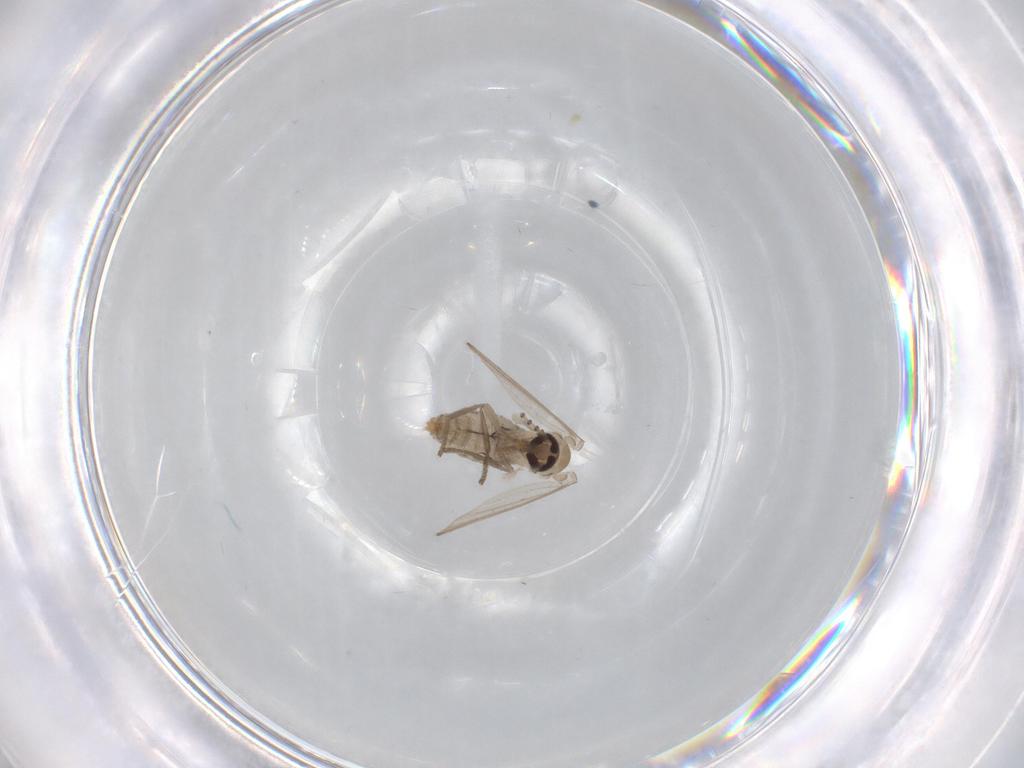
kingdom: Animalia
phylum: Arthropoda
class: Insecta
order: Diptera
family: Psychodidae
